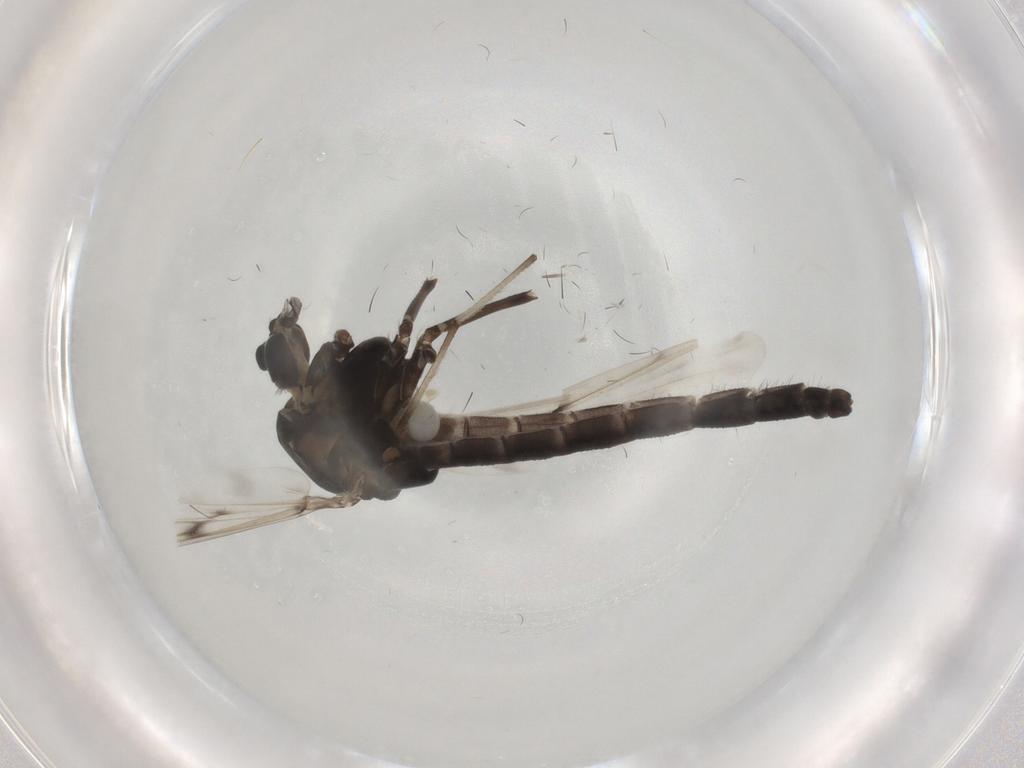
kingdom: Animalia
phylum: Arthropoda
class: Insecta
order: Diptera
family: Chironomidae
